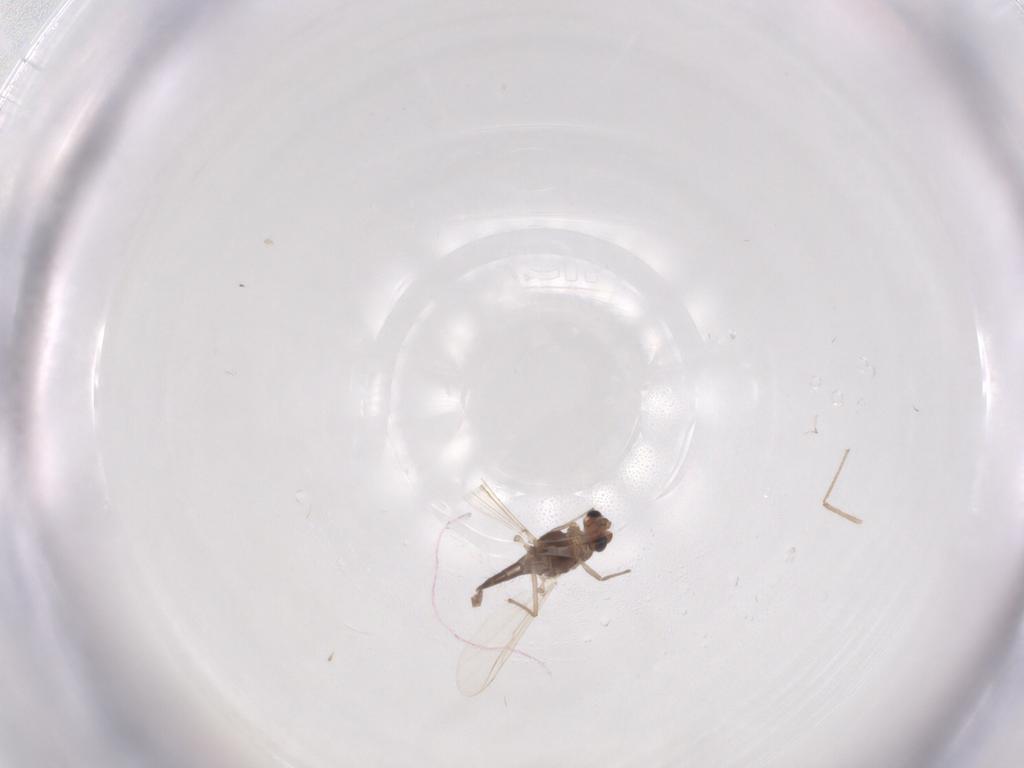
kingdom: Animalia
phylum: Arthropoda
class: Insecta
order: Diptera
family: Chironomidae
